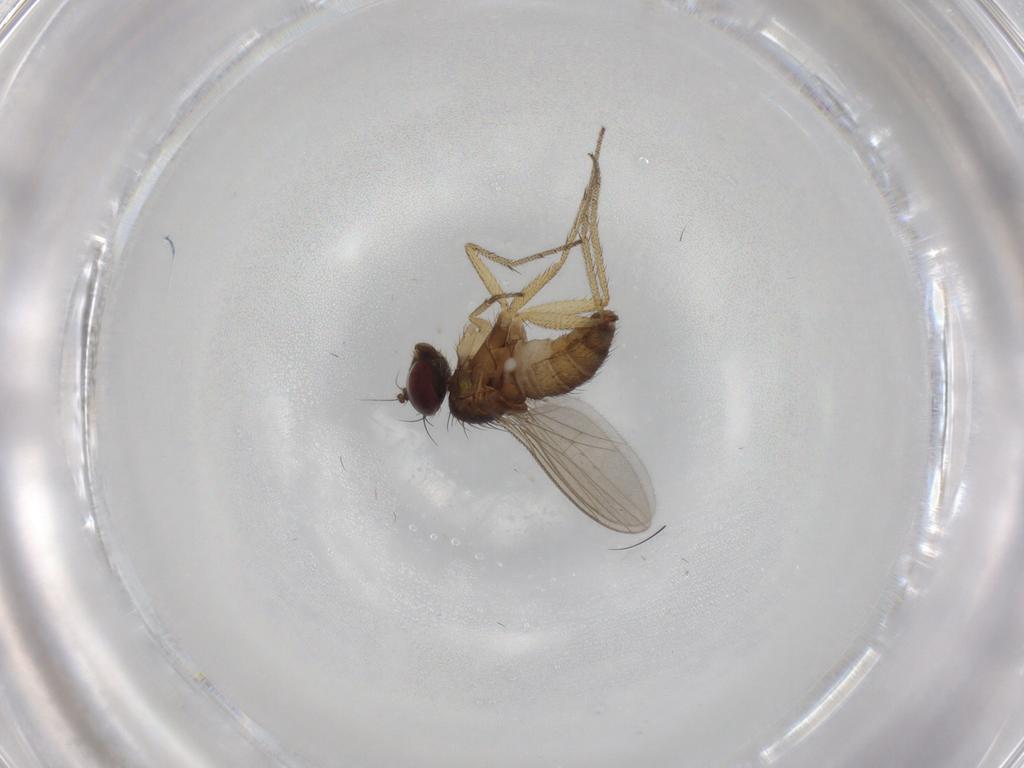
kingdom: Animalia
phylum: Arthropoda
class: Insecta
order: Diptera
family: Dolichopodidae
